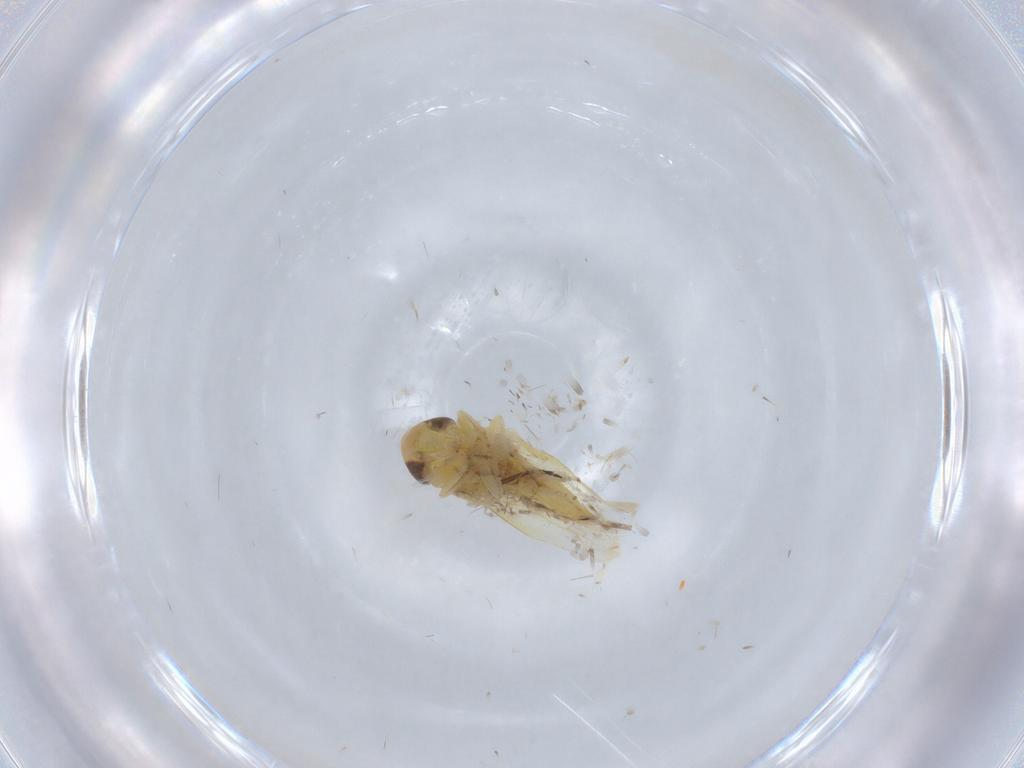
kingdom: Animalia
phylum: Arthropoda
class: Insecta
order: Hemiptera
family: Cicadellidae
